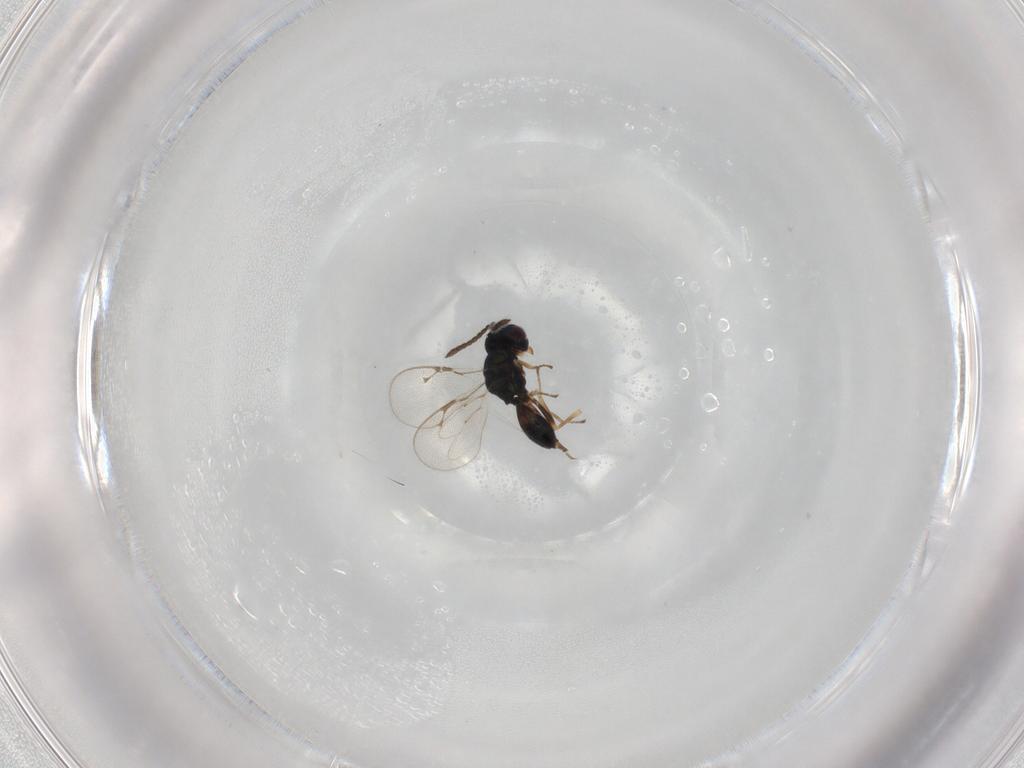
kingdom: Animalia
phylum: Arthropoda
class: Insecta
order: Hymenoptera
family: Pteromalidae
